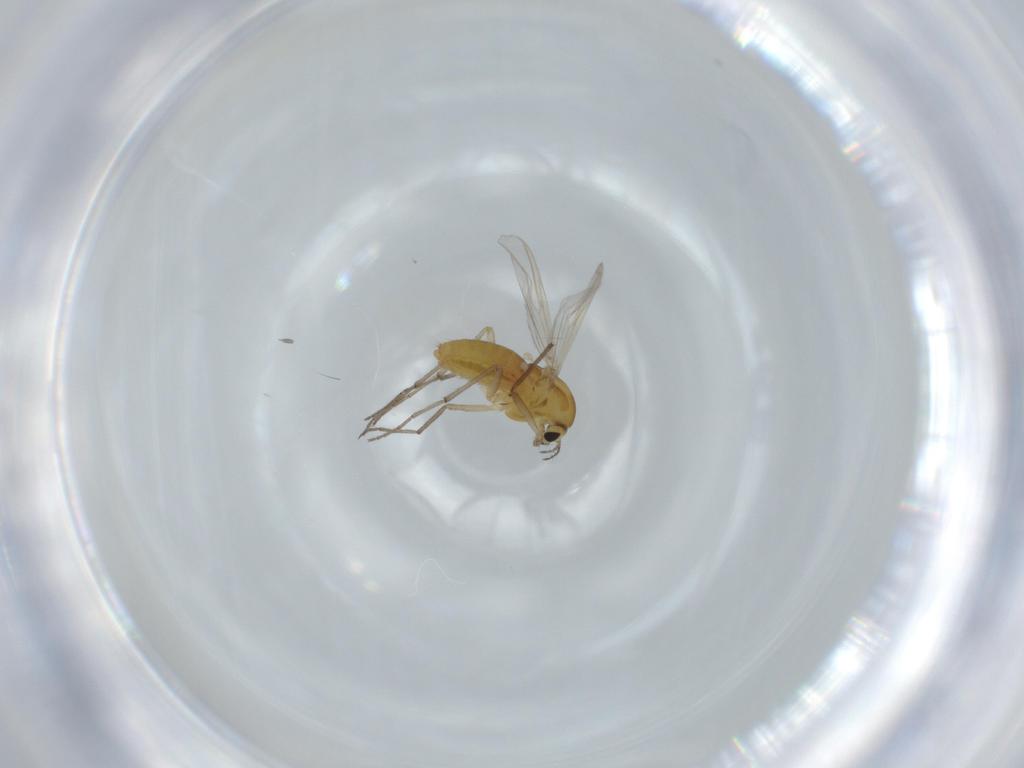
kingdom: Animalia
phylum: Arthropoda
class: Insecta
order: Diptera
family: Chironomidae
